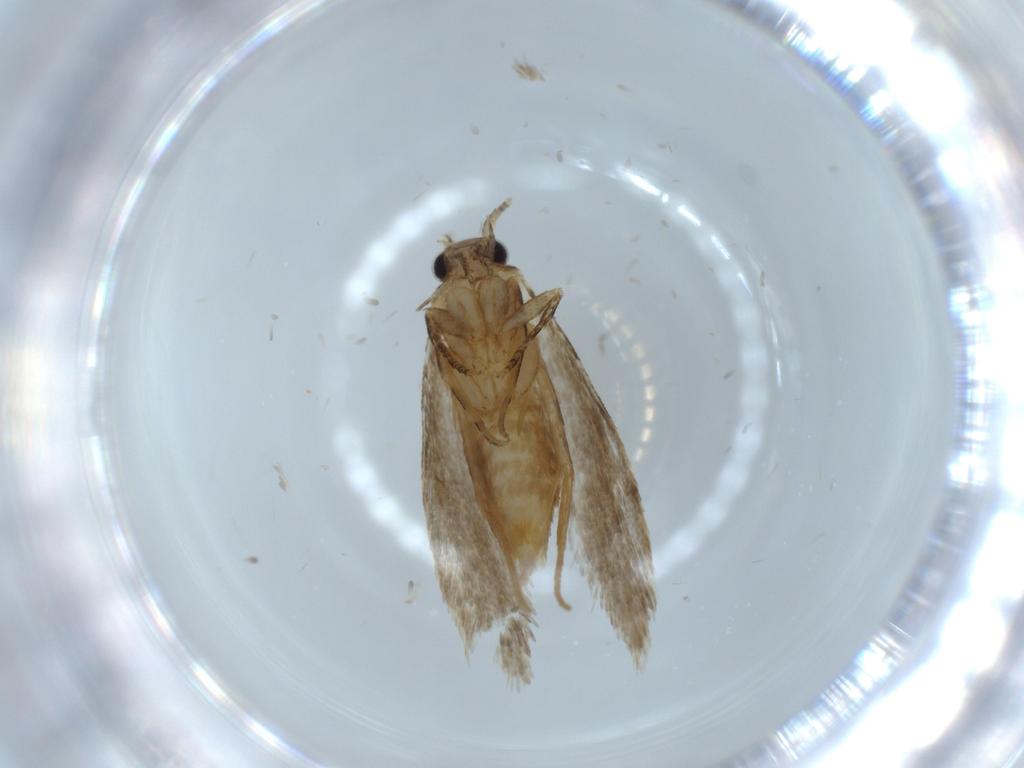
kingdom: Animalia
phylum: Arthropoda
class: Insecta
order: Lepidoptera
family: Tineidae
